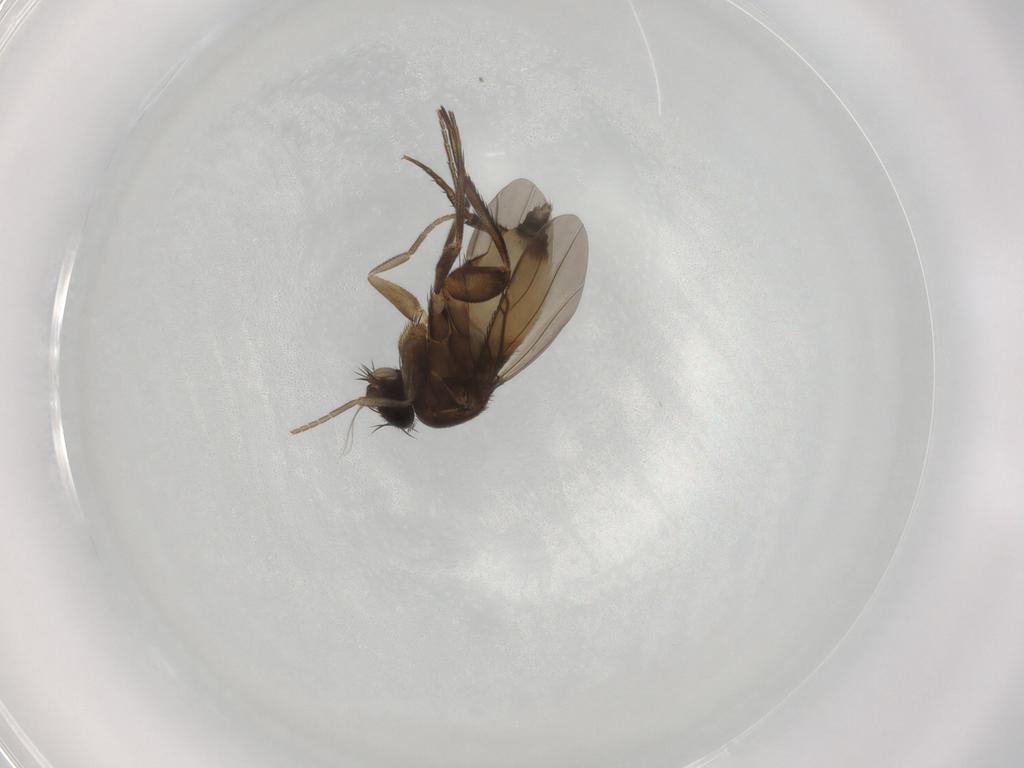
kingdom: Animalia
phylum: Arthropoda
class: Insecta
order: Diptera
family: Phoridae
